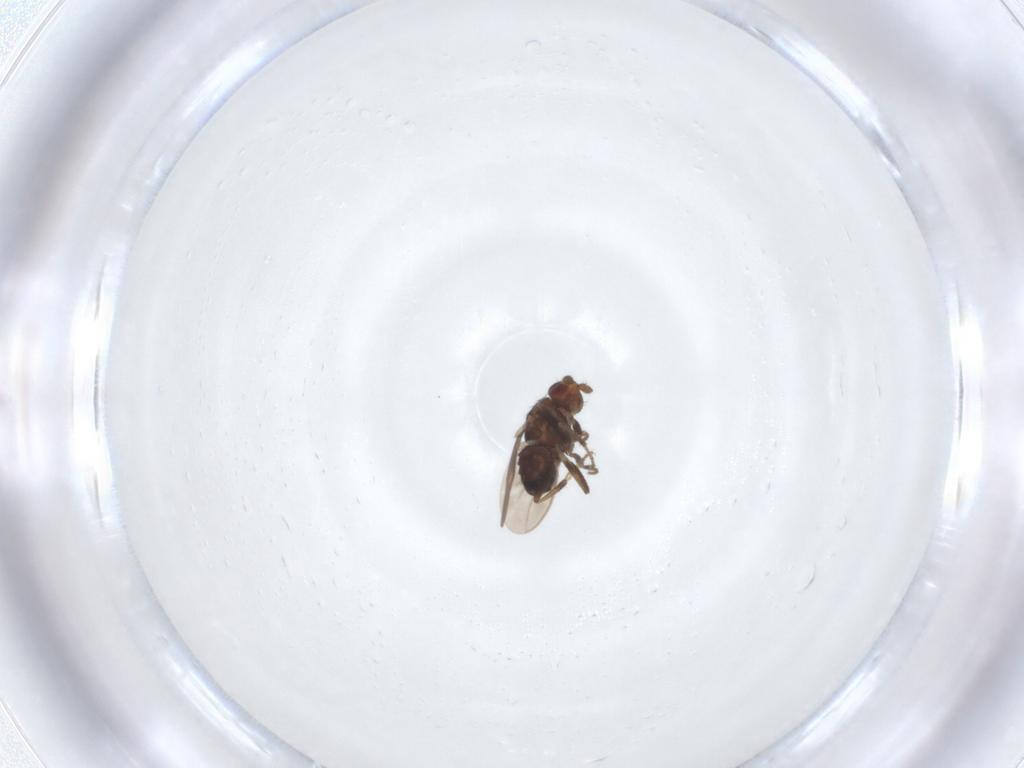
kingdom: Animalia
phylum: Arthropoda
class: Insecta
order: Diptera
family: Sphaeroceridae
